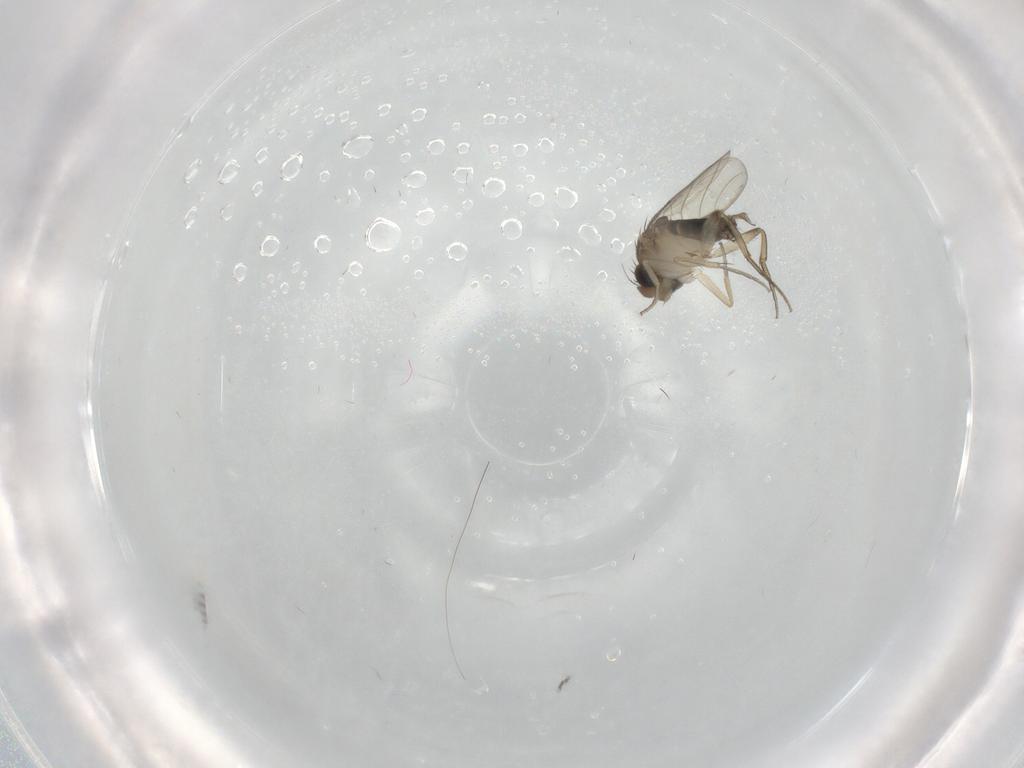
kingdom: Animalia
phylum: Arthropoda
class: Insecta
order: Diptera
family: Cecidomyiidae
